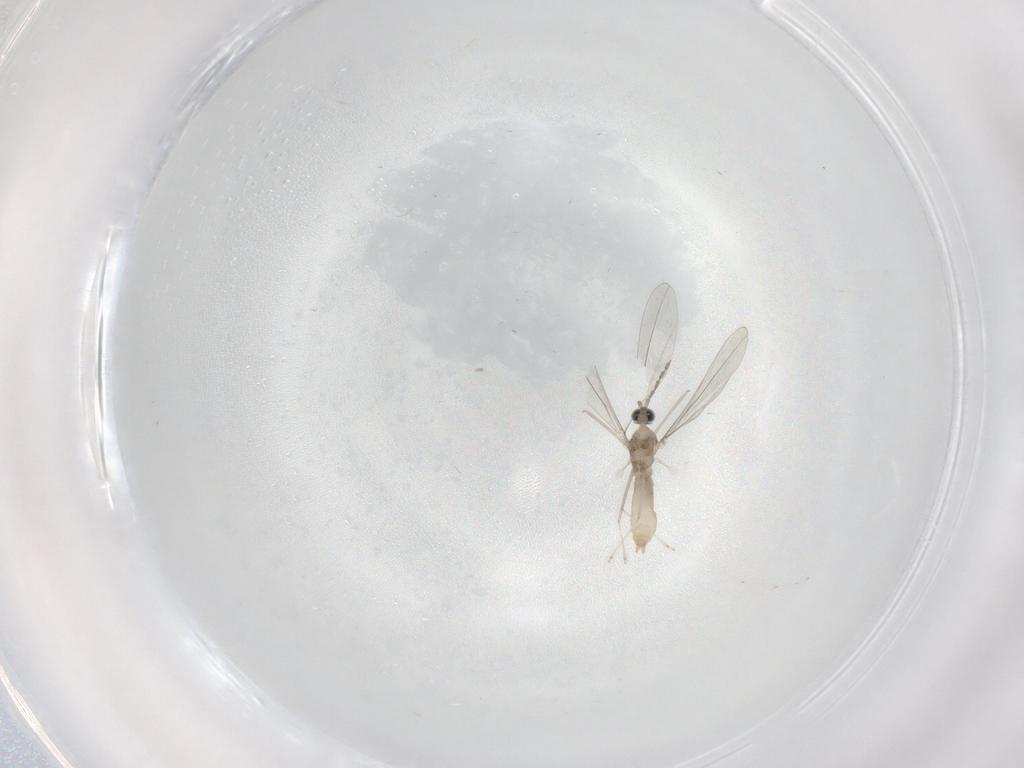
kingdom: Animalia
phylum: Arthropoda
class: Insecta
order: Diptera
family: Cecidomyiidae
